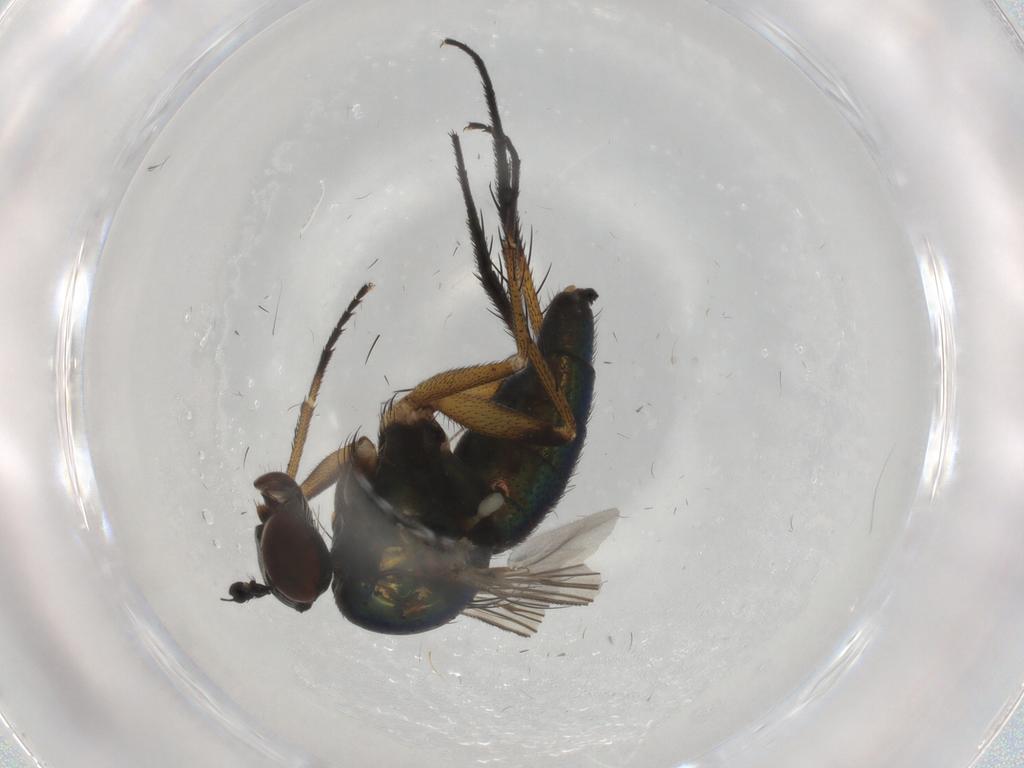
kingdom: Animalia
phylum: Arthropoda
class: Insecta
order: Diptera
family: Dolichopodidae
